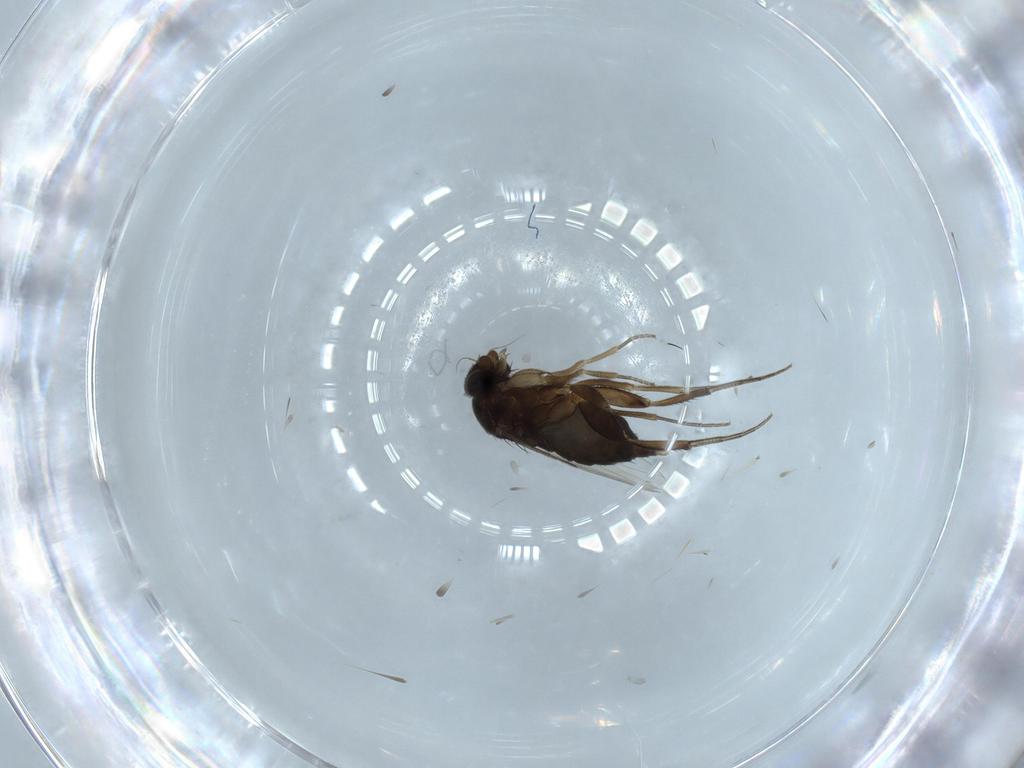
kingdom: Animalia
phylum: Arthropoda
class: Insecta
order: Diptera
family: Phoridae
